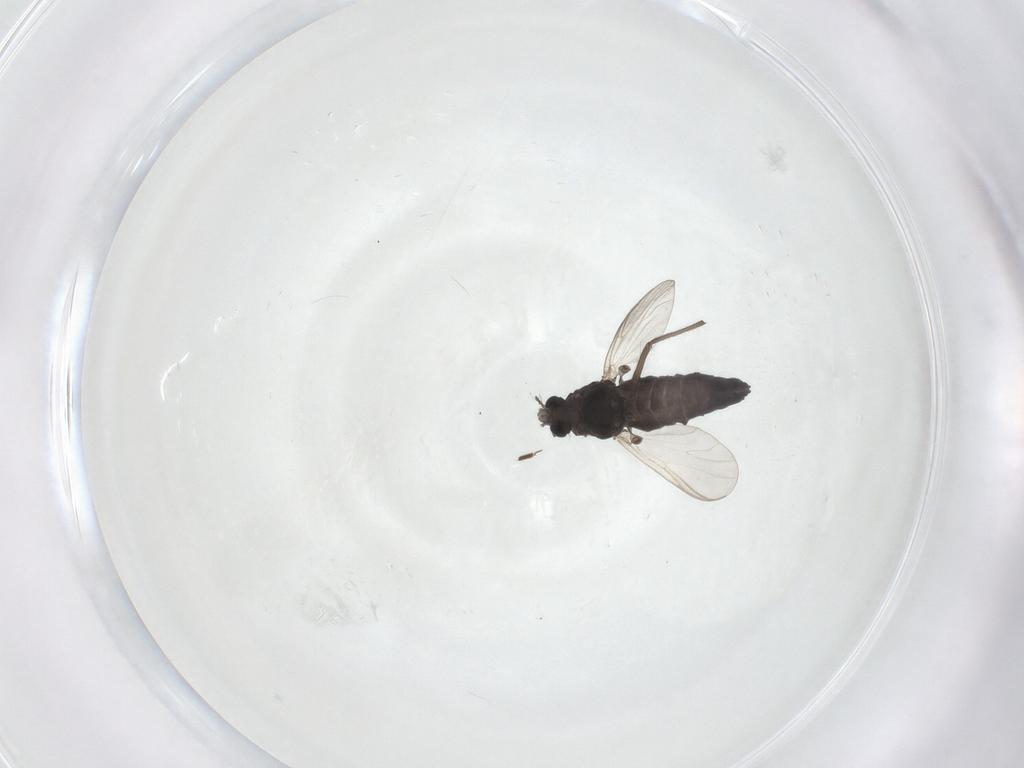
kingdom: Animalia
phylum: Arthropoda
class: Insecta
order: Diptera
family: Chironomidae
